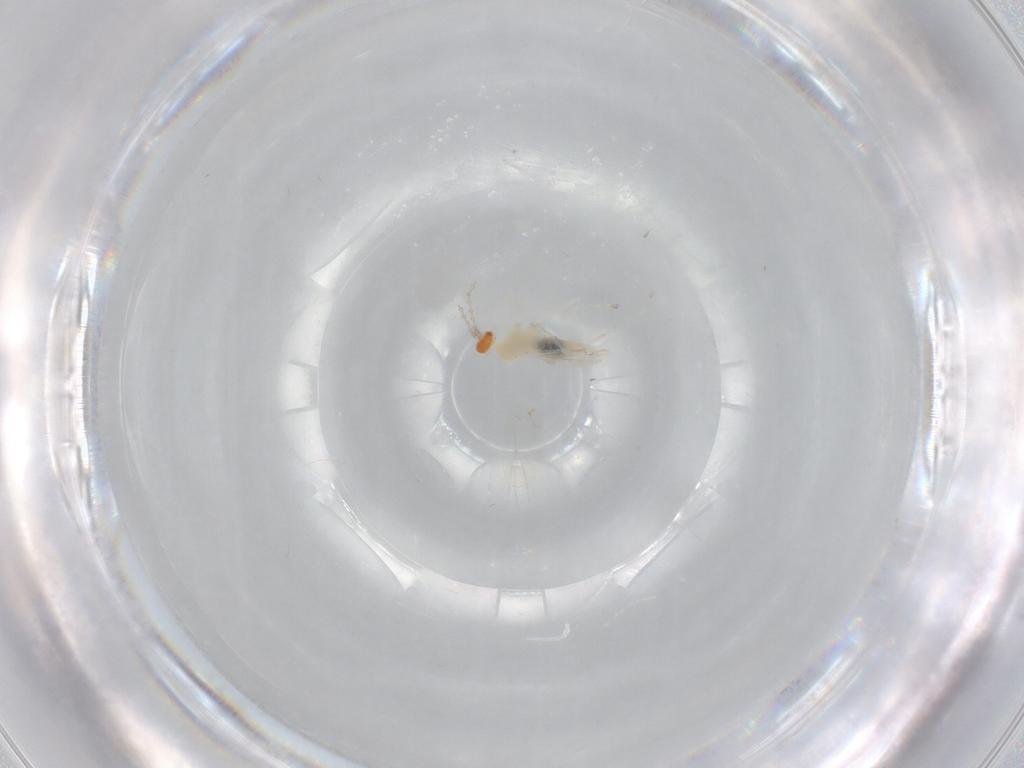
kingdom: Animalia
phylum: Arthropoda
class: Insecta
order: Diptera
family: Cecidomyiidae
